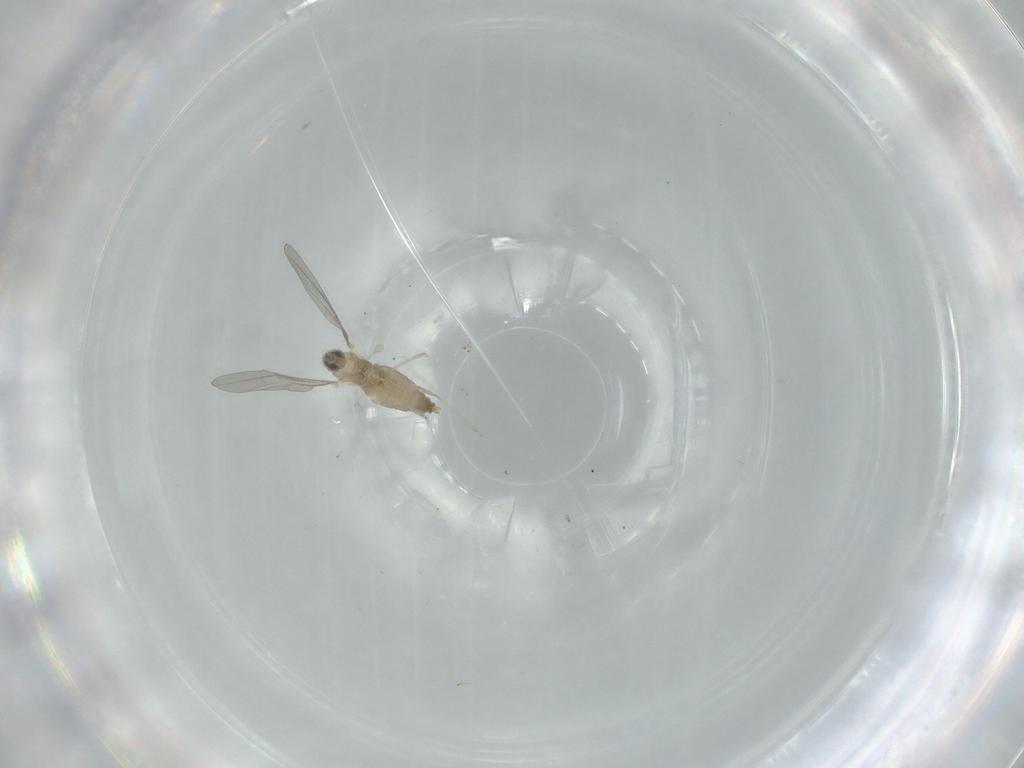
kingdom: Animalia
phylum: Arthropoda
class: Insecta
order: Diptera
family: Cecidomyiidae
